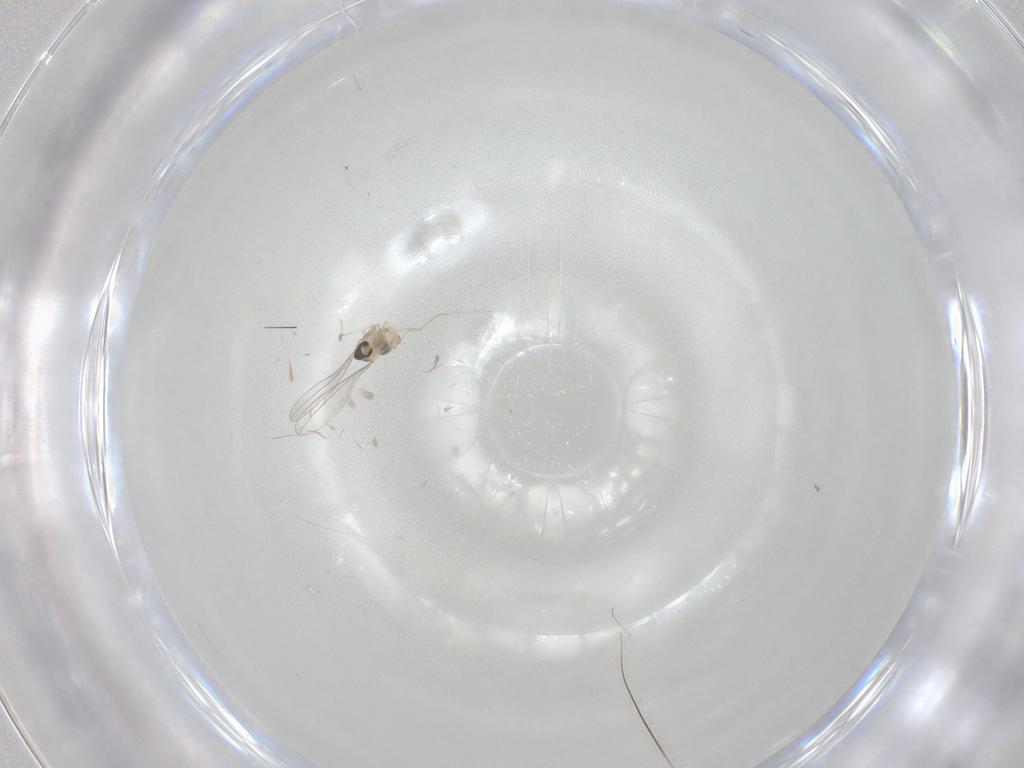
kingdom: Animalia
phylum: Arthropoda
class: Insecta
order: Diptera
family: Cecidomyiidae
